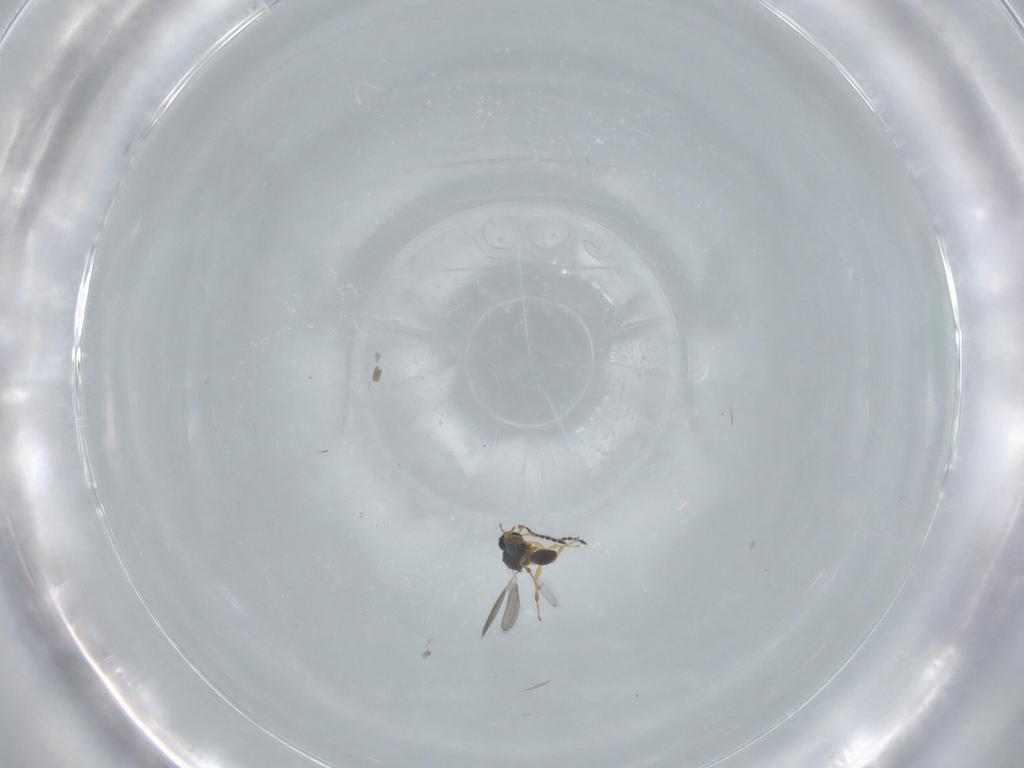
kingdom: Animalia
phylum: Arthropoda
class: Insecta
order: Hymenoptera
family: Platygastridae
